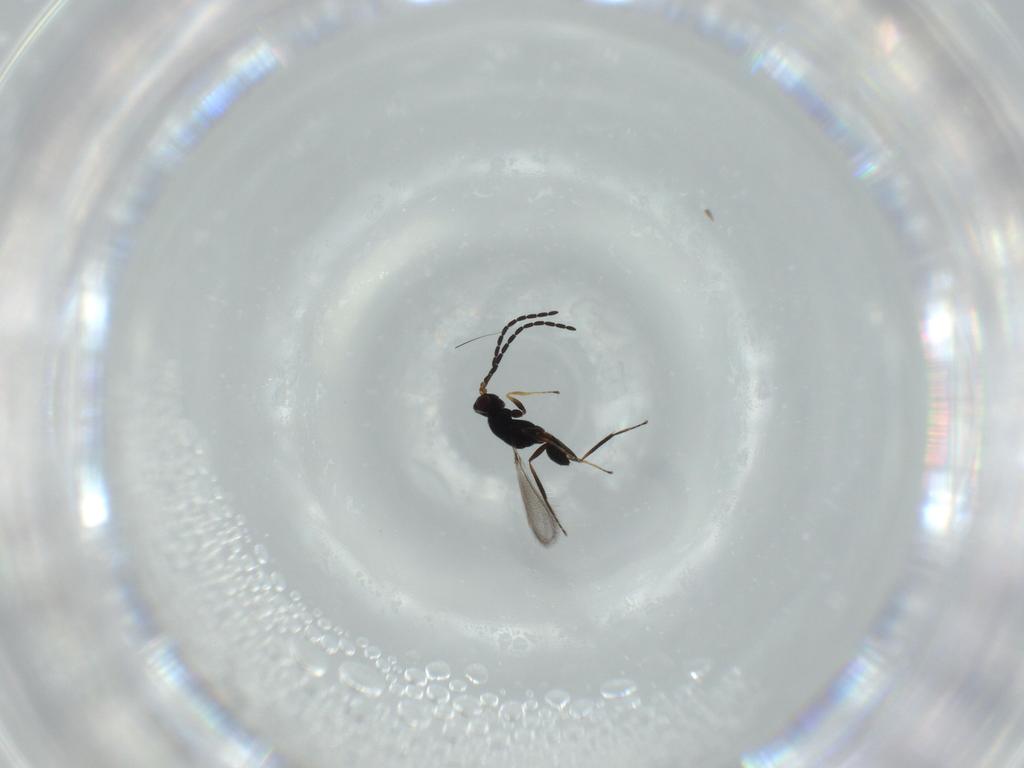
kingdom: Animalia
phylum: Arthropoda
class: Insecta
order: Hymenoptera
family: Mymaridae
